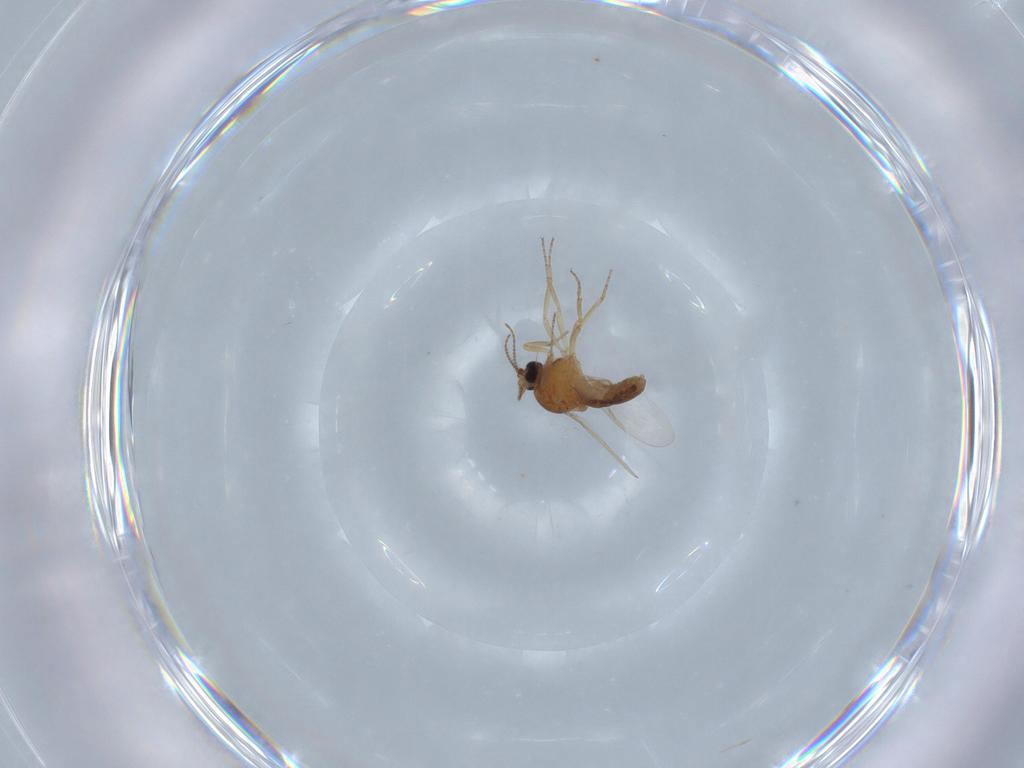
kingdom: Animalia
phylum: Arthropoda
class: Insecta
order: Diptera
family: Ceratopogonidae
